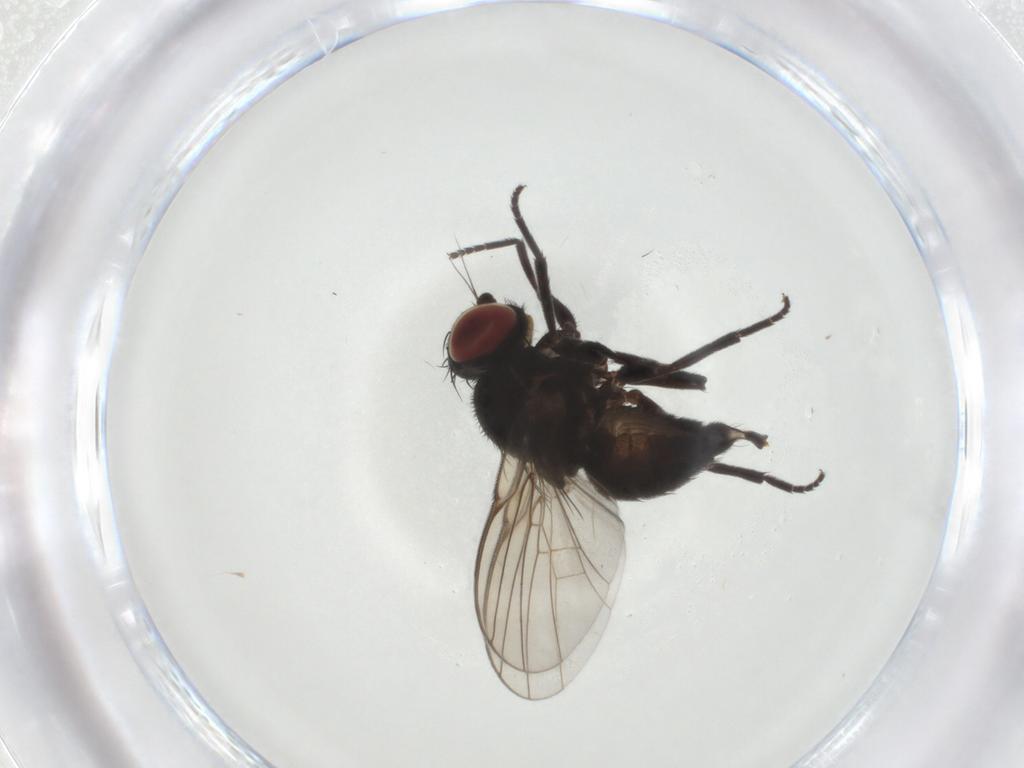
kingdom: Animalia
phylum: Arthropoda
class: Insecta
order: Diptera
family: Agromyzidae
